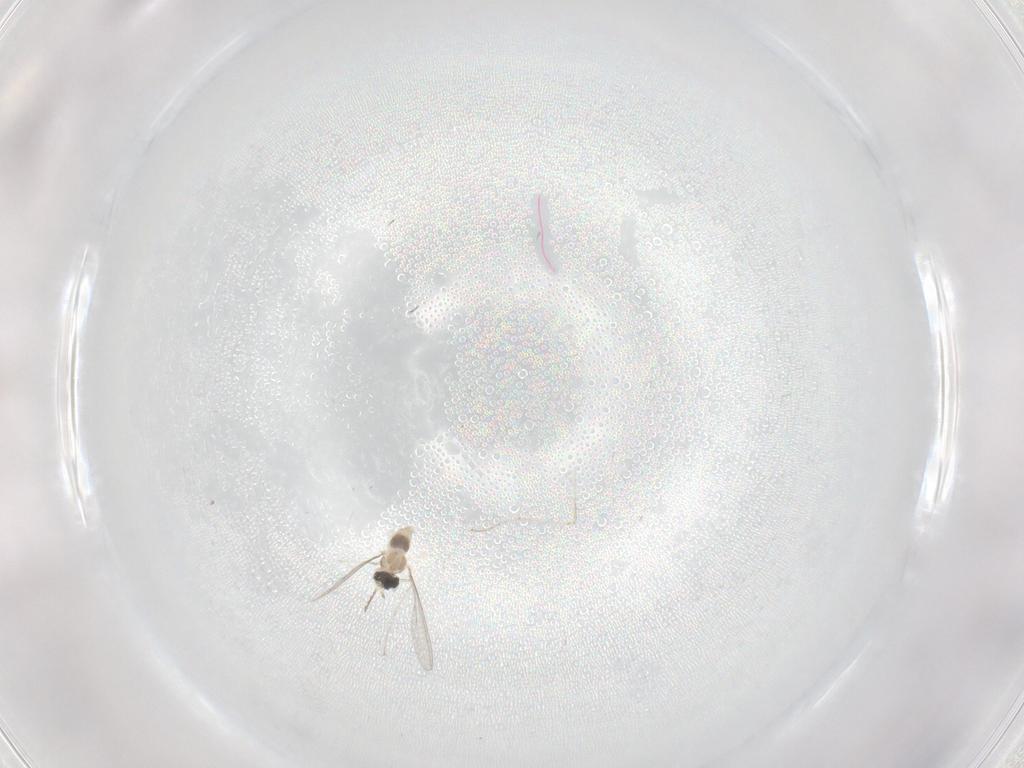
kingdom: Animalia
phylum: Arthropoda
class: Insecta
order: Diptera
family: Cecidomyiidae
